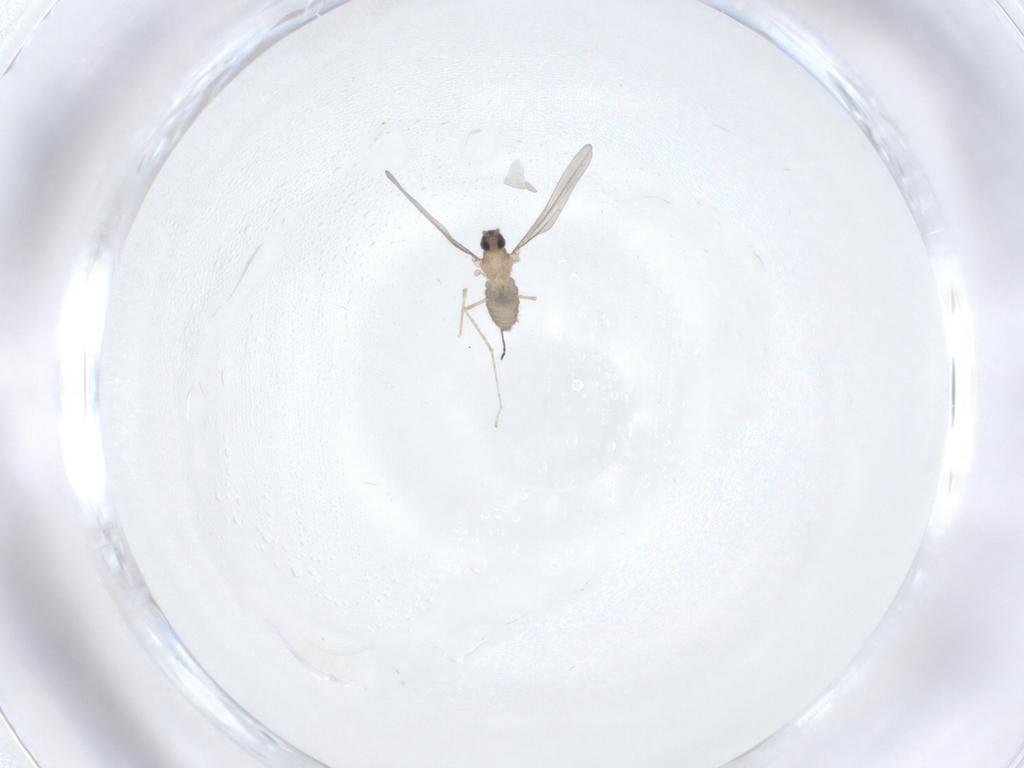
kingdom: Animalia
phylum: Arthropoda
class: Insecta
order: Diptera
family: Cecidomyiidae
